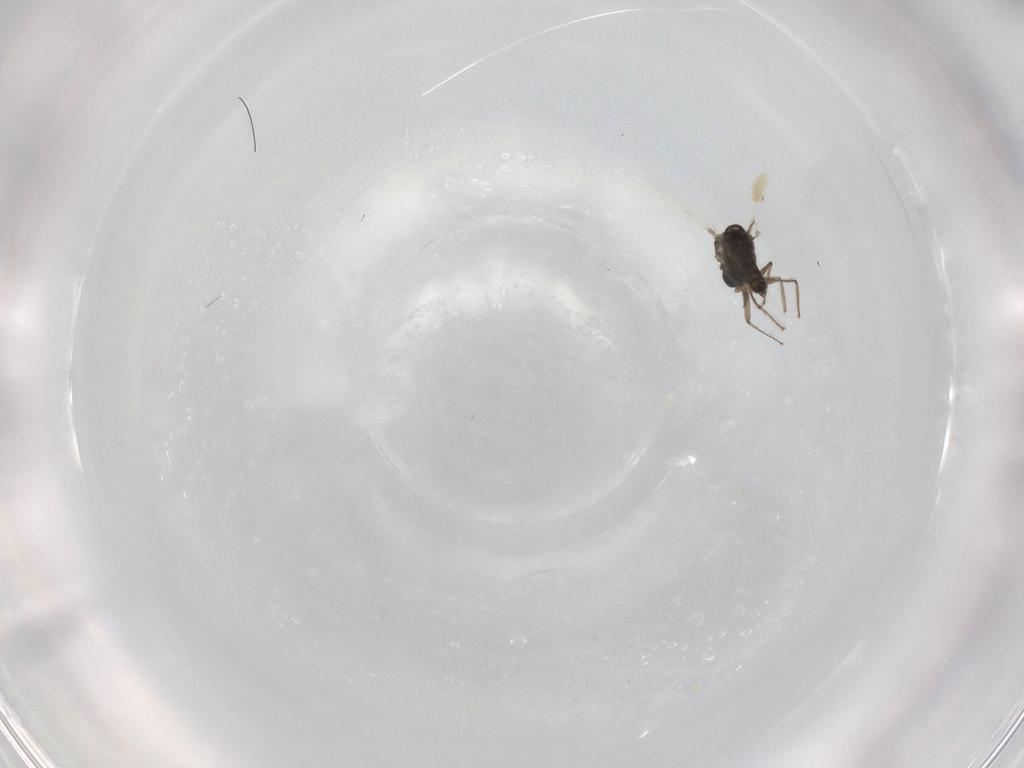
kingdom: Animalia
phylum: Arthropoda
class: Insecta
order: Diptera
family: Chironomidae
